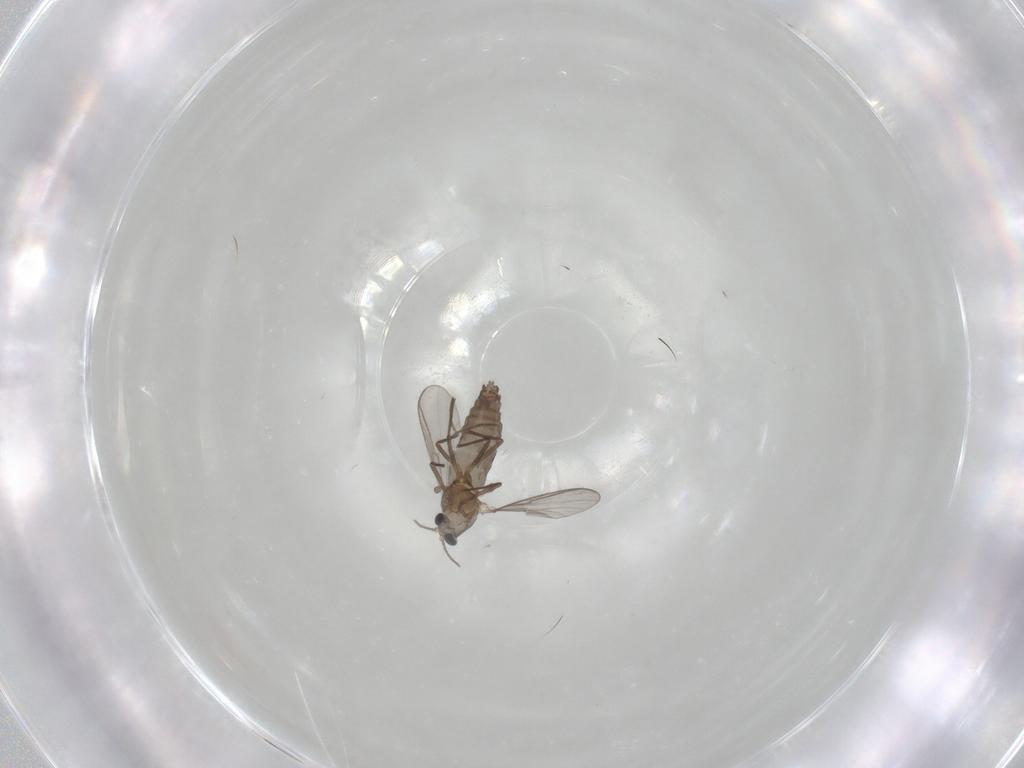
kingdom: Animalia
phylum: Arthropoda
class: Insecta
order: Diptera
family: Chironomidae
